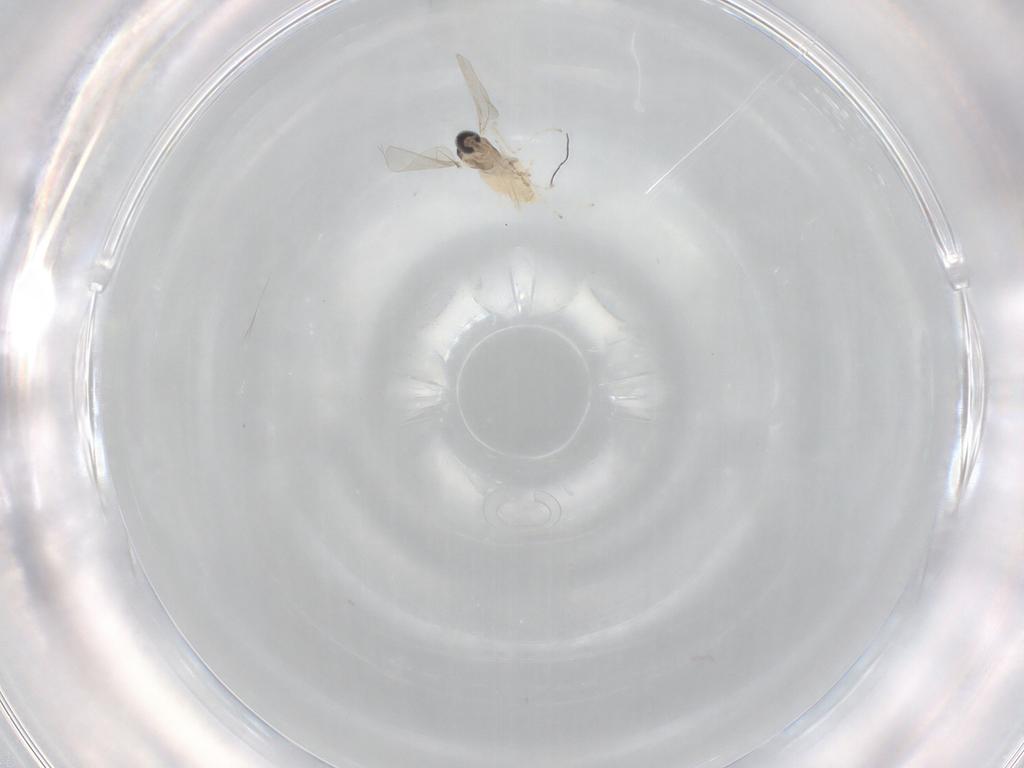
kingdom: Animalia
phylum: Arthropoda
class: Insecta
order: Diptera
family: Cecidomyiidae
